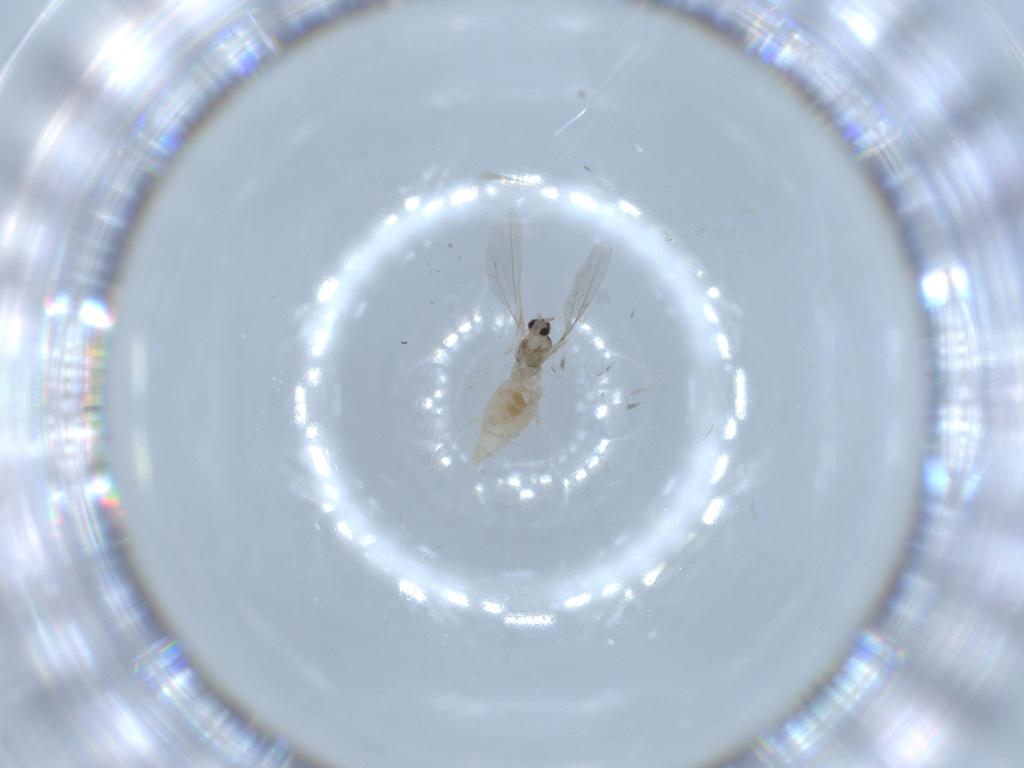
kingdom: Animalia
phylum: Arthropoda
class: Insecta
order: Diptera
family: Cecidomyiidae
